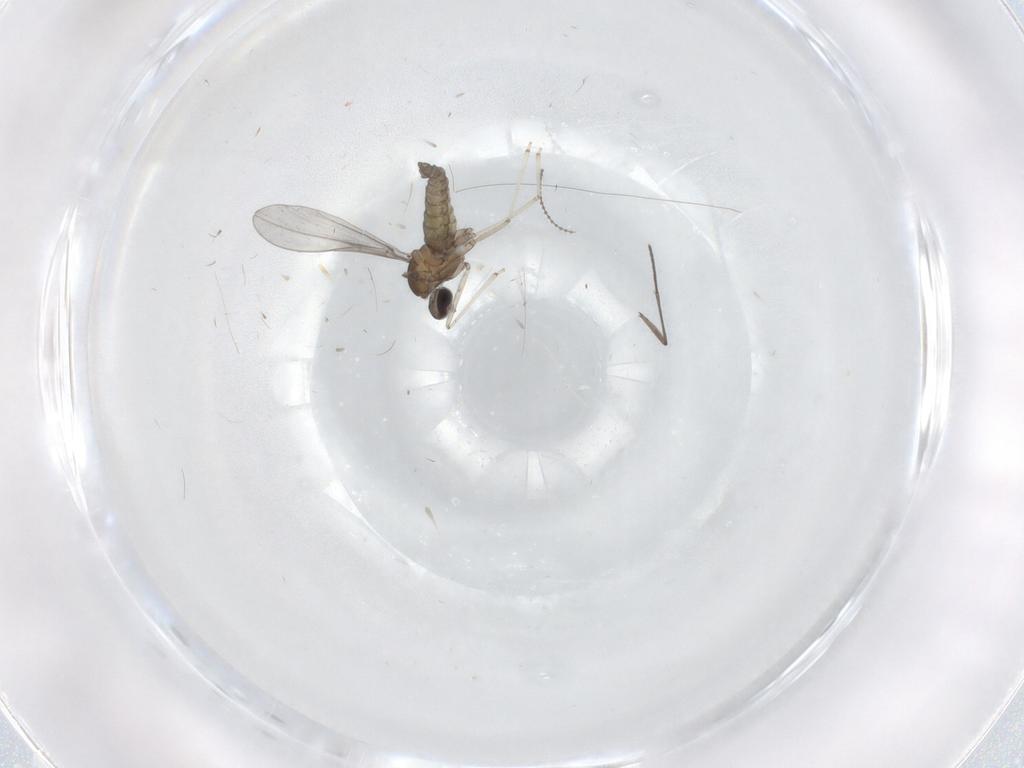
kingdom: Animalia
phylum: Arthropoda
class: Insecta
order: Diptera
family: Cecidomyiidae
